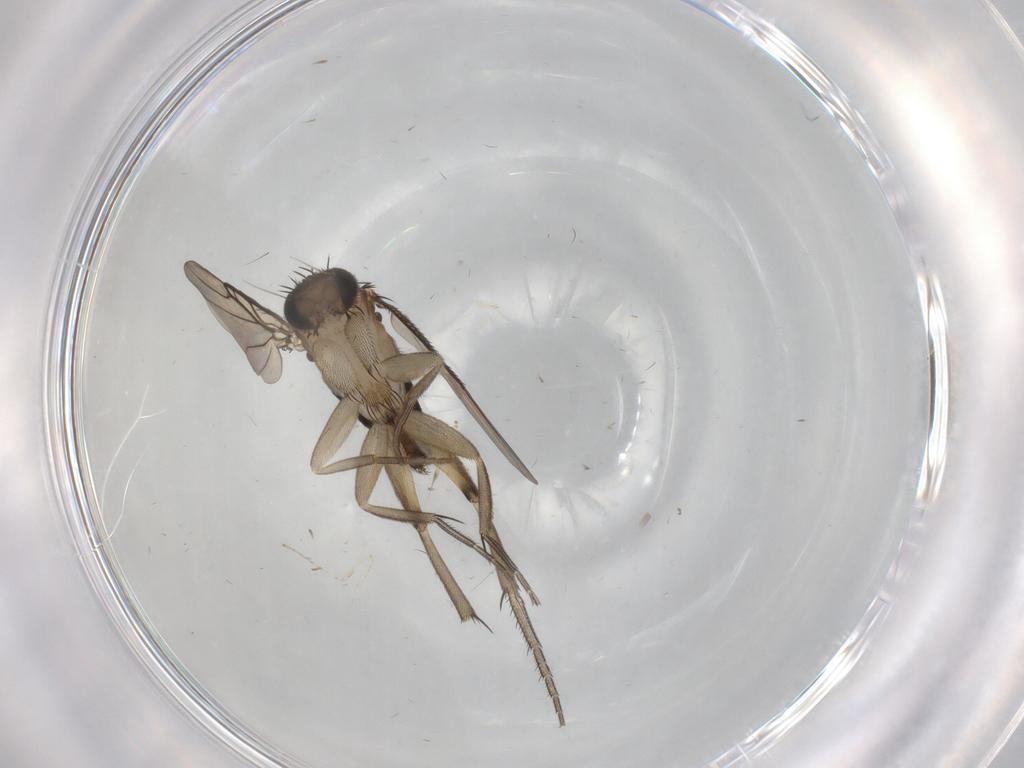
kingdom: Animalia
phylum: Arthropoda
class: Insecta
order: Diptera
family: Phoridae
